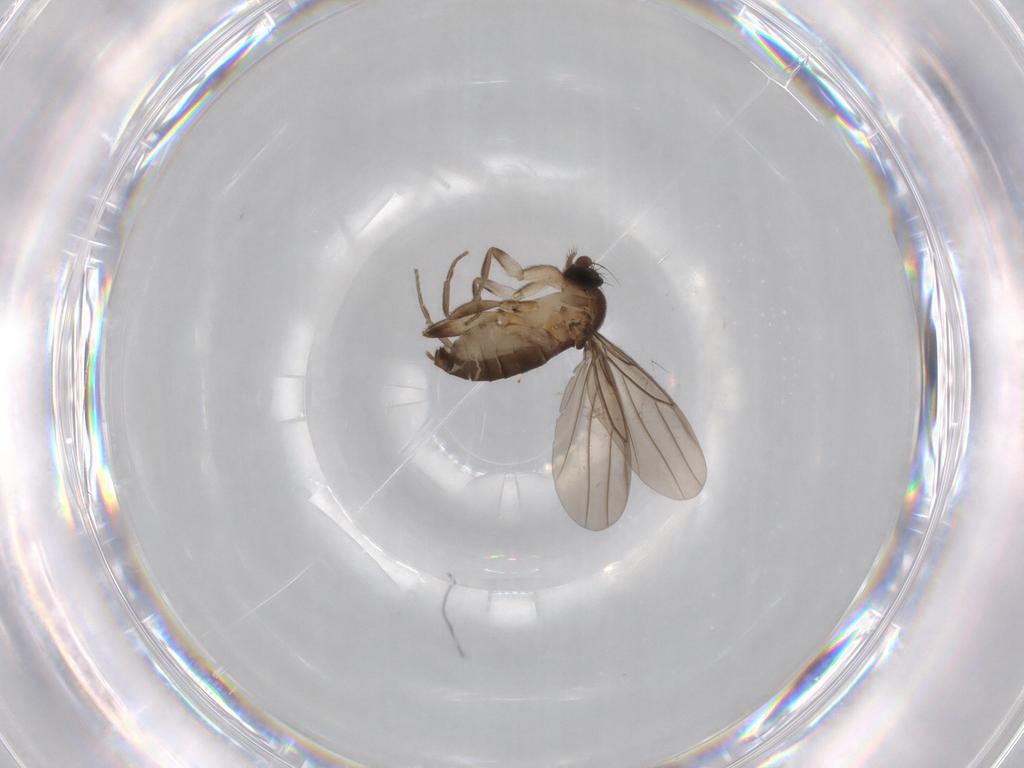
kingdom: Animalia
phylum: Arthropoda
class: Insecta
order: Diptera
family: Chironomidae
